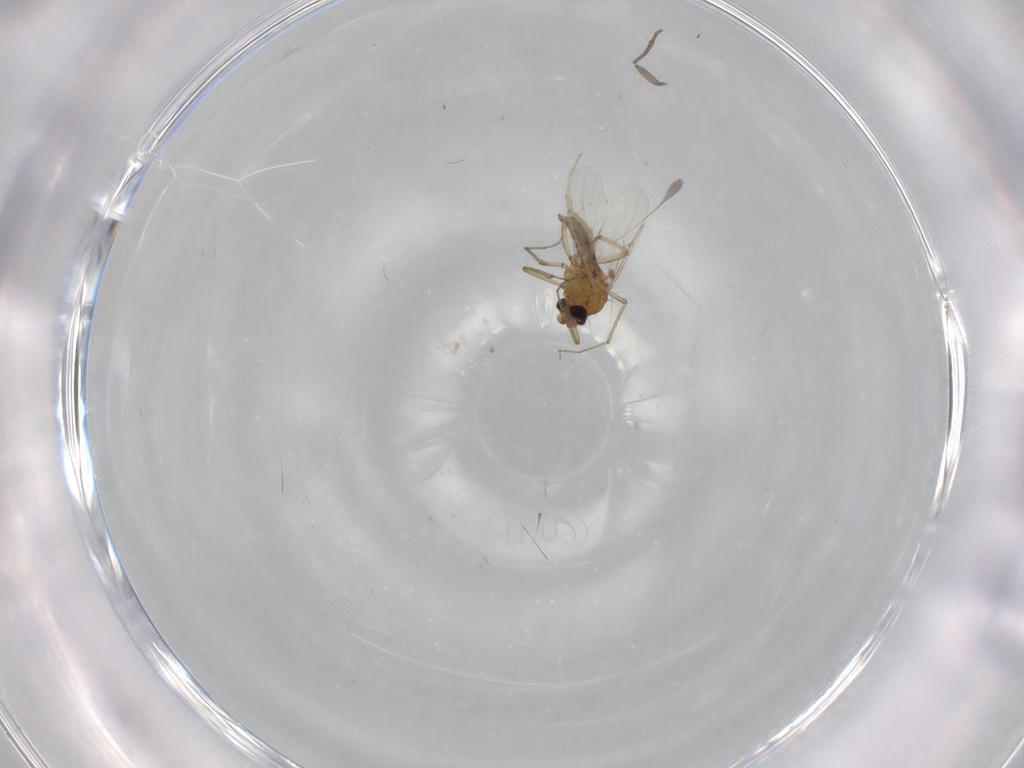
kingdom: Animalia
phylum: Arthropoda
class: Insecta
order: Diptera
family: Psychodidae
